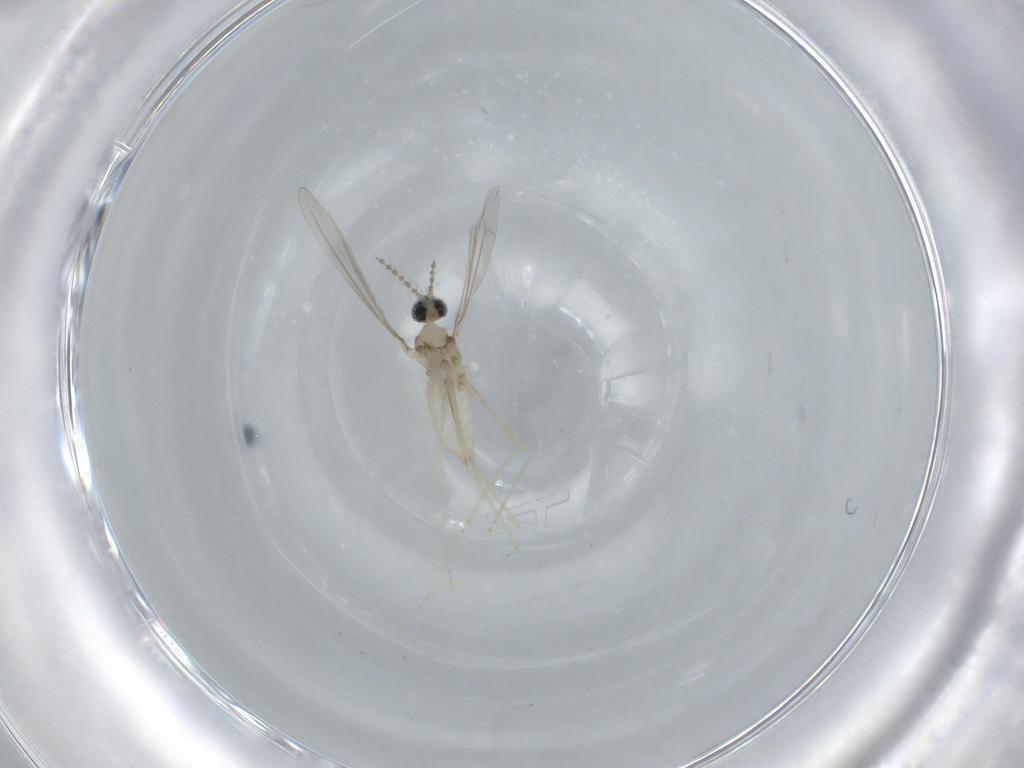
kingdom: Animalia
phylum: Arthropoda
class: Insecta
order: Diptera
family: Cecidomyiidae
